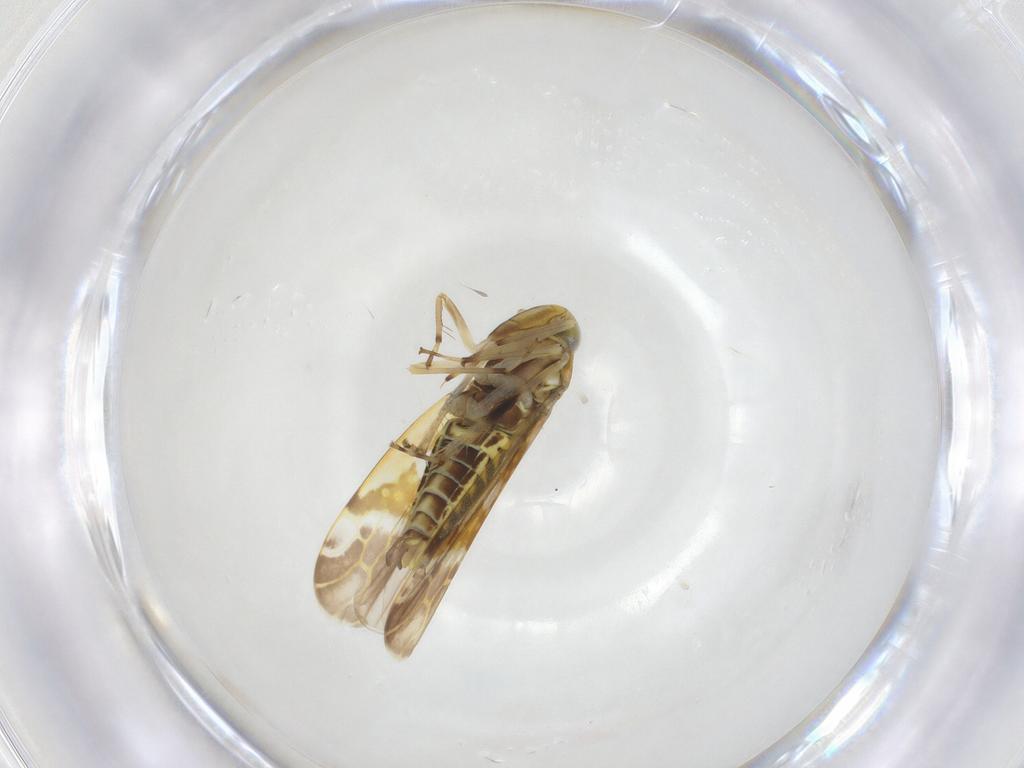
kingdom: Animalia
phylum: Arthropoda
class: Insecta
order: Hemiptera
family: Cicadellidae
